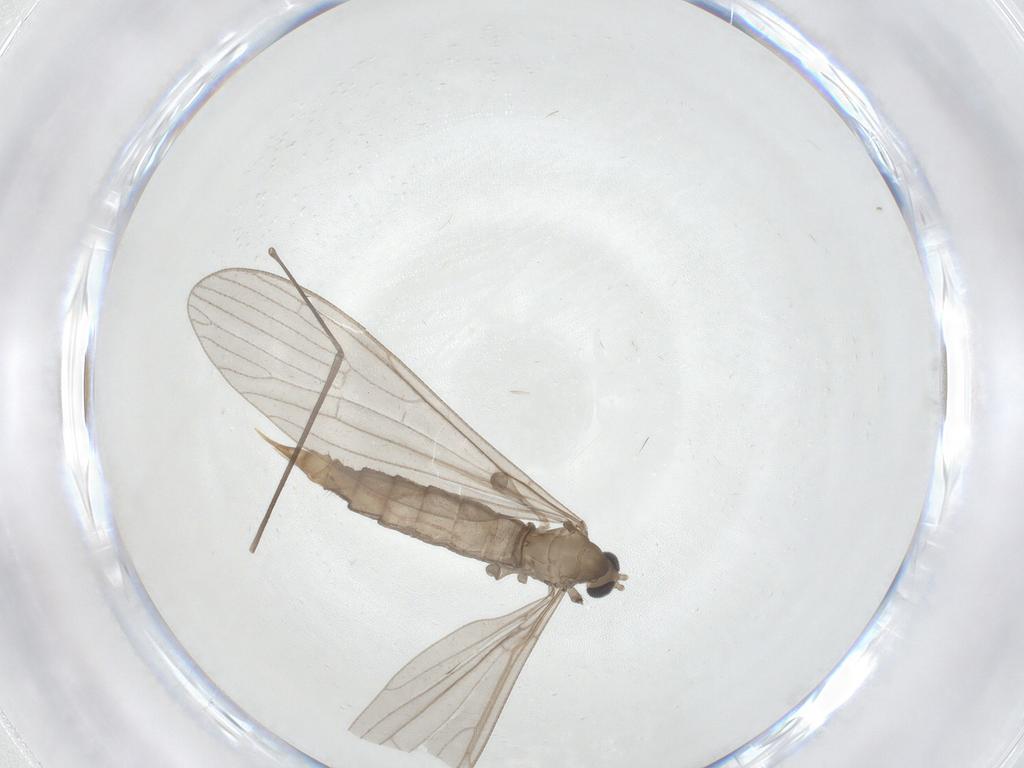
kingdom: Animalia
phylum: Arthropoda
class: Insecta
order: Diptera
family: Limoniidae
